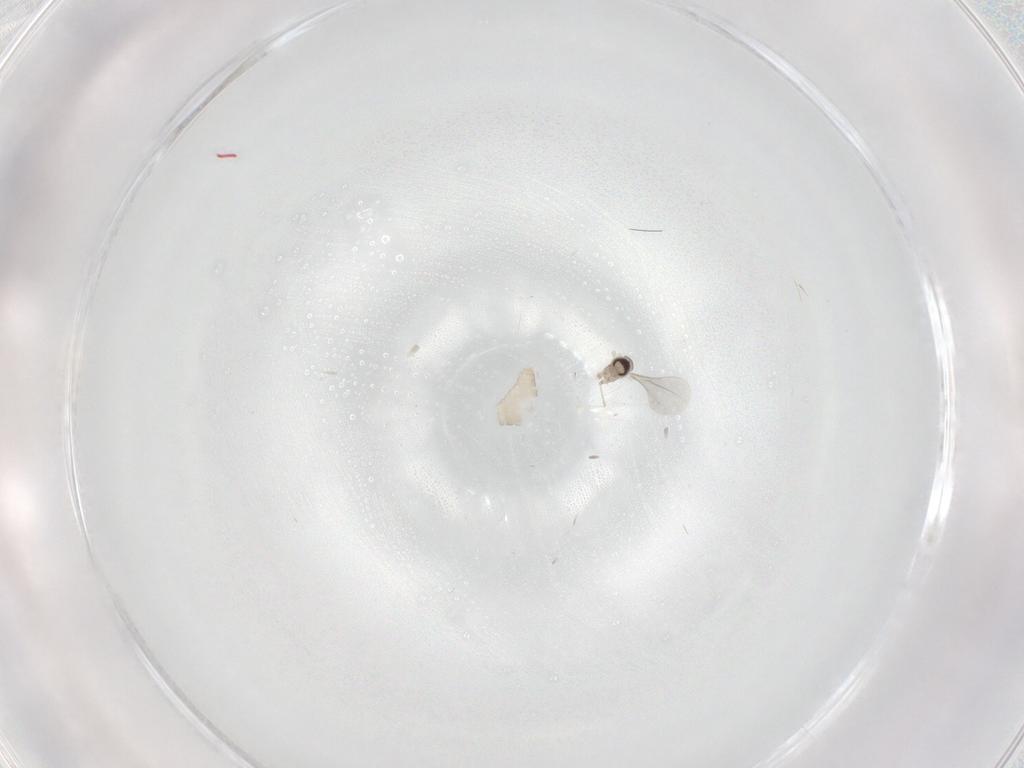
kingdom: Animalia
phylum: Arthropoda
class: Insecta
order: Diptera
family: Cecidomyiidae
